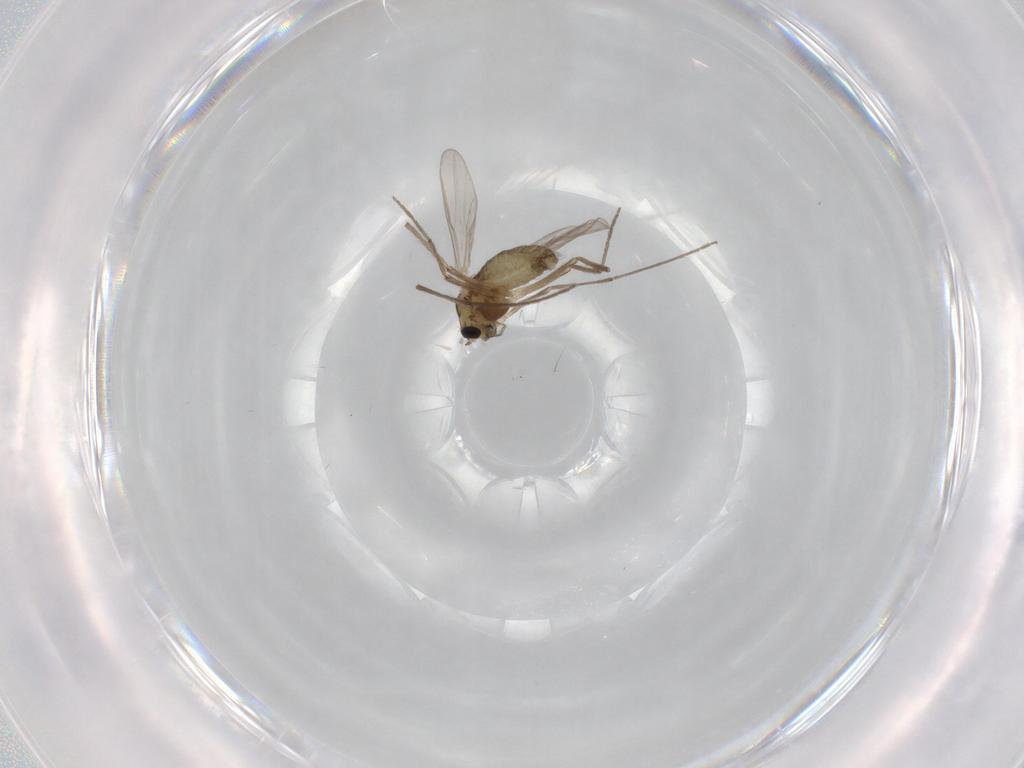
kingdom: Animalia
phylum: Arthropoda
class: Insecta
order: Diptera
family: Chironomidae
